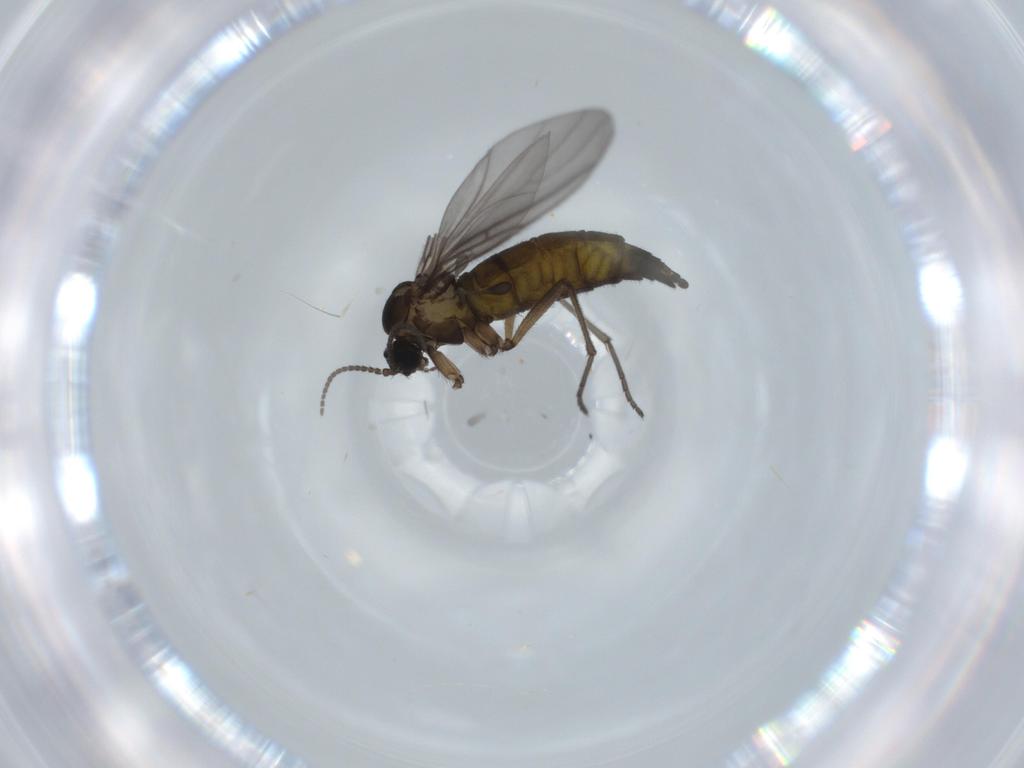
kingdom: Animalia
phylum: Arthropoda
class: Insecta
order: Diptera
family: Sciaridae
